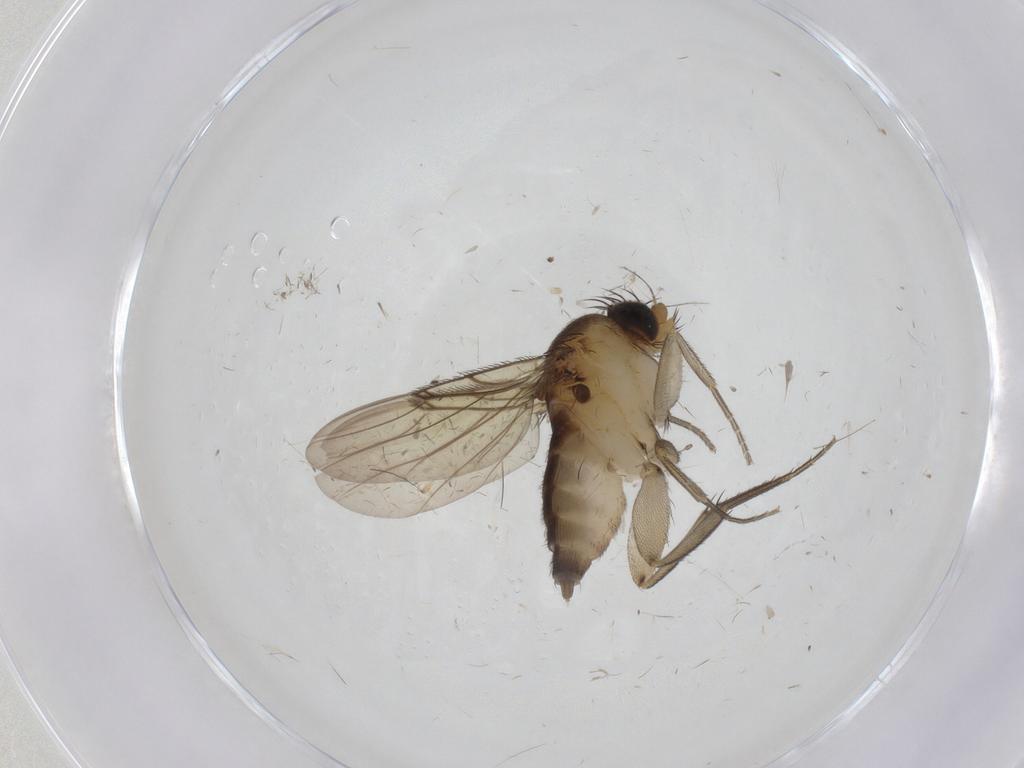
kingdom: Animalia
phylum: Arthropoda
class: Insecta
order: Diptera
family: Phoridae
